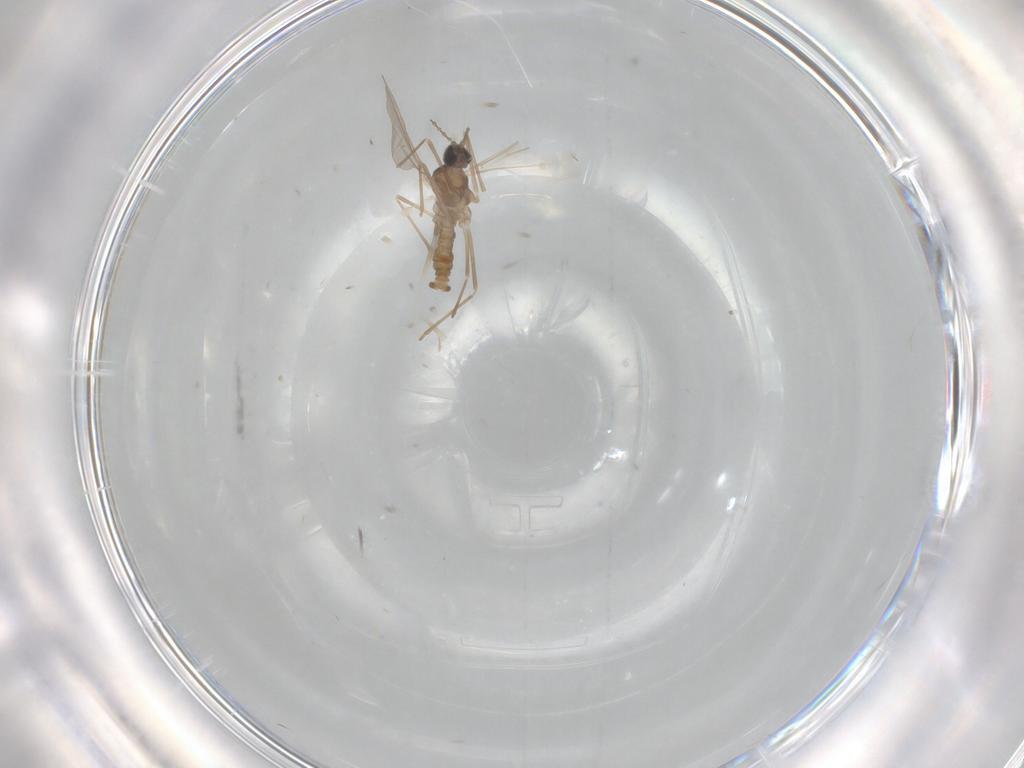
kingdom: Animalia
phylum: Arthropoda
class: Insecta
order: Diptera
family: Cecidomyiidae
